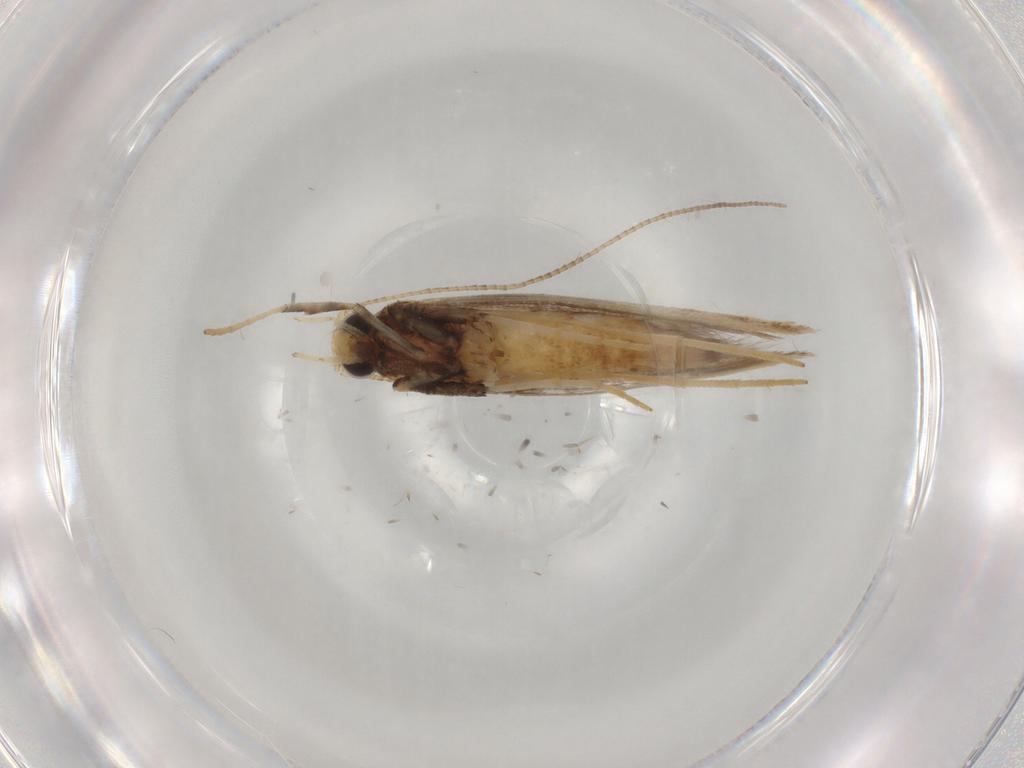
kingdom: Animalia
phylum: Arthropoda
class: Insecta
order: Lepidoptera
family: Gracillariidae
